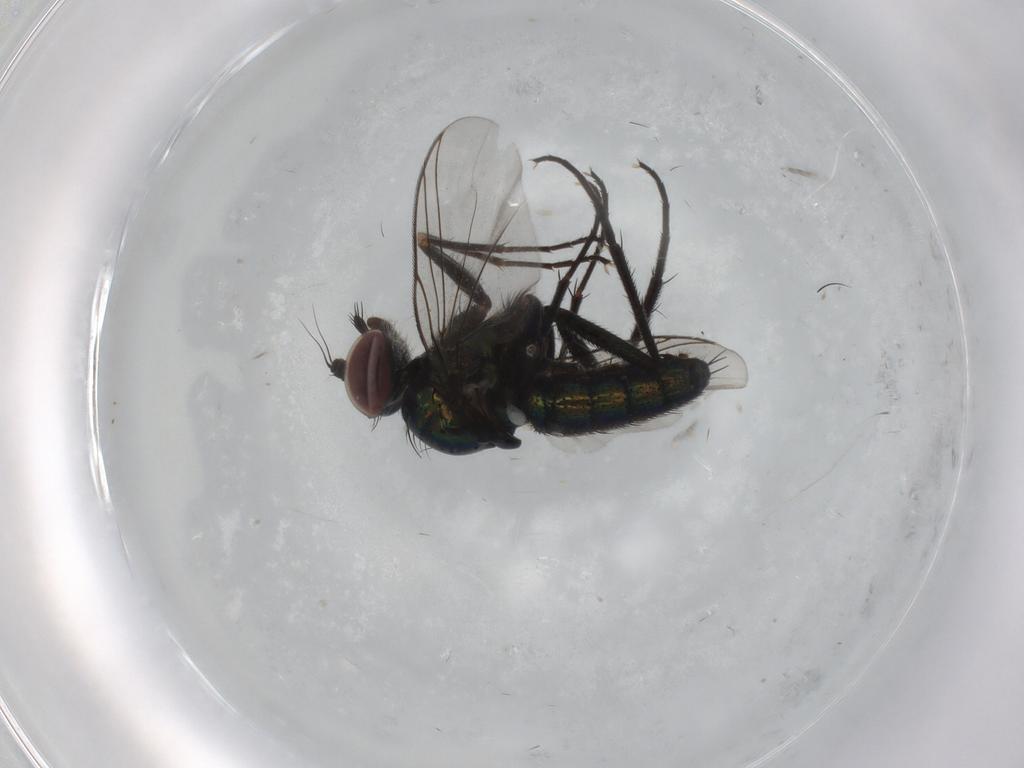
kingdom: Animalia
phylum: Arthropoda
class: Insecta
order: Diptera
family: Dolichopodidae
